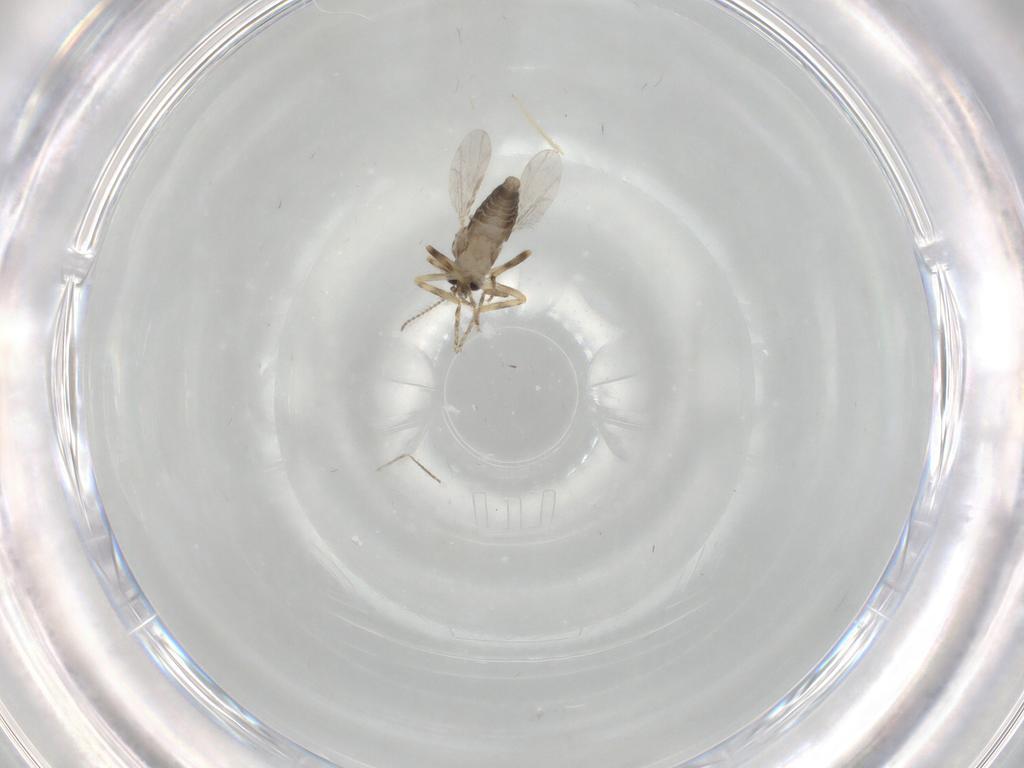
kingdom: Animalia
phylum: Arthropoda
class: Insecta
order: Diptera
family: Ceratopogonidae
